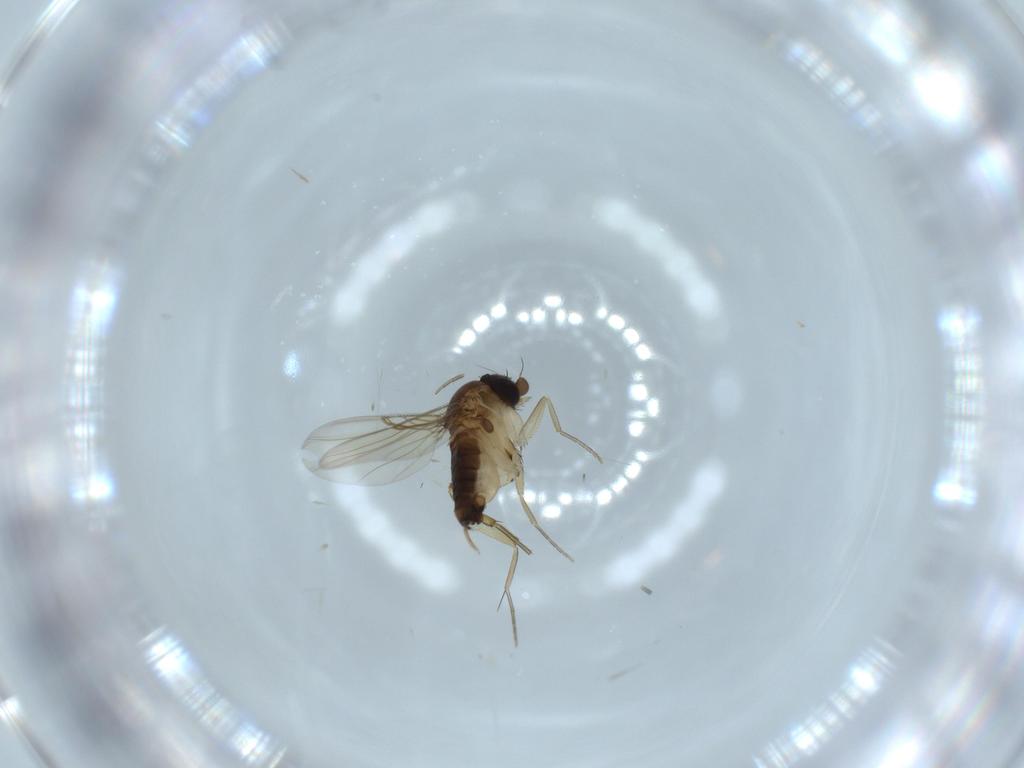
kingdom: Animalia
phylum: Arthropoda
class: Insecta
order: Diptera
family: Phoridae
